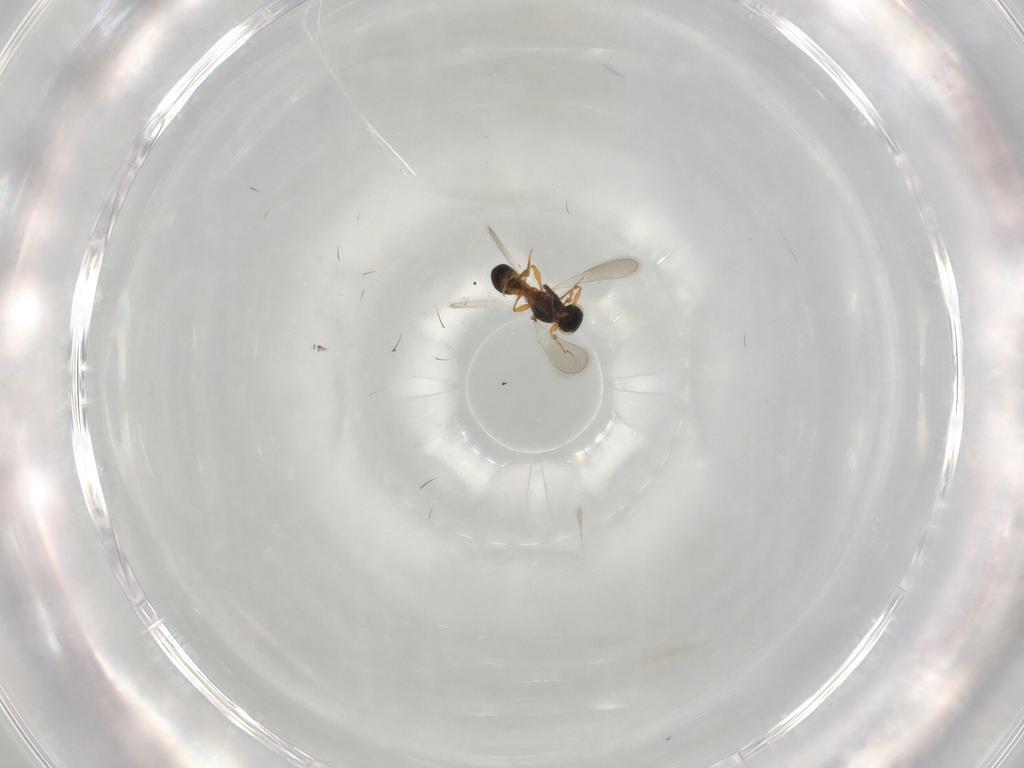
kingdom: Animalia
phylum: Arthropoda
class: Insecta
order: Hymenoptera
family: Platygastridae
